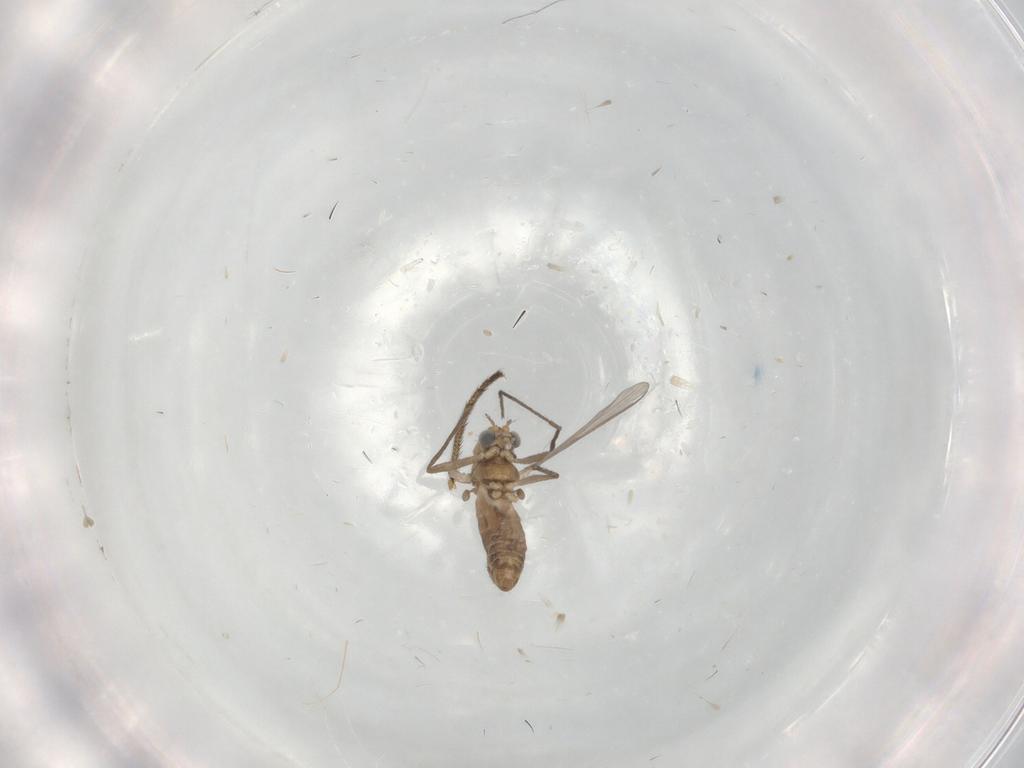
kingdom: Animalia
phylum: Arthropoda
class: Insecta
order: Diptera
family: Chironomidae
